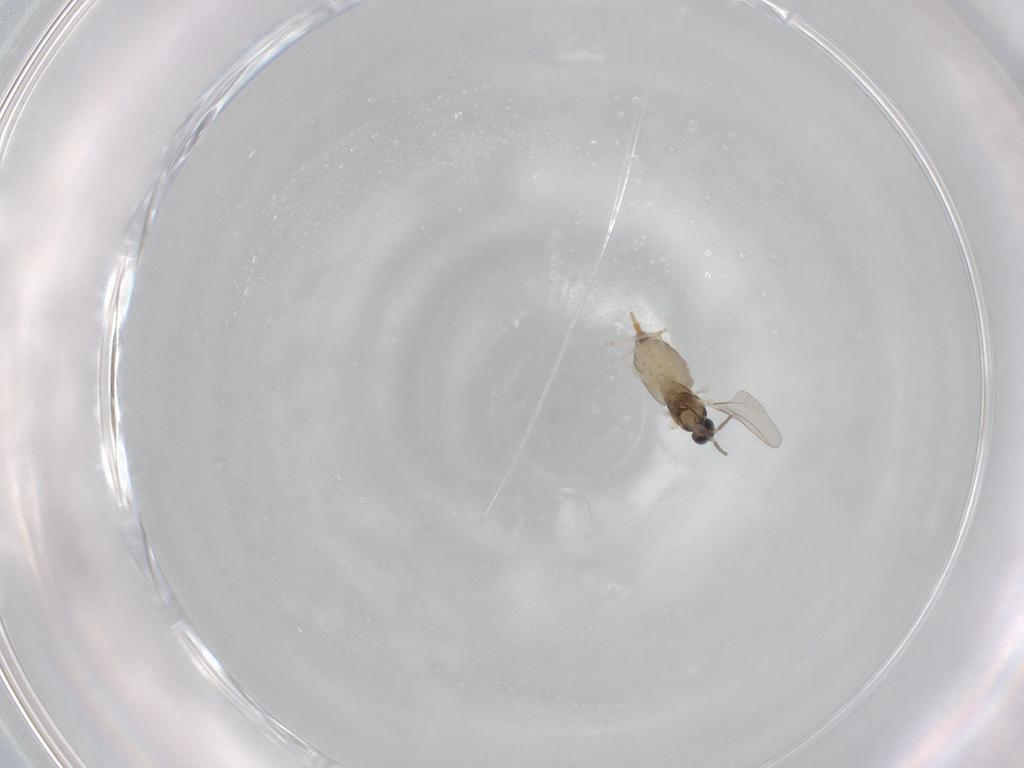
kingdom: Animalia
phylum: Arthropoda
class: Insecta
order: Diptera
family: Cecidomyiidae
